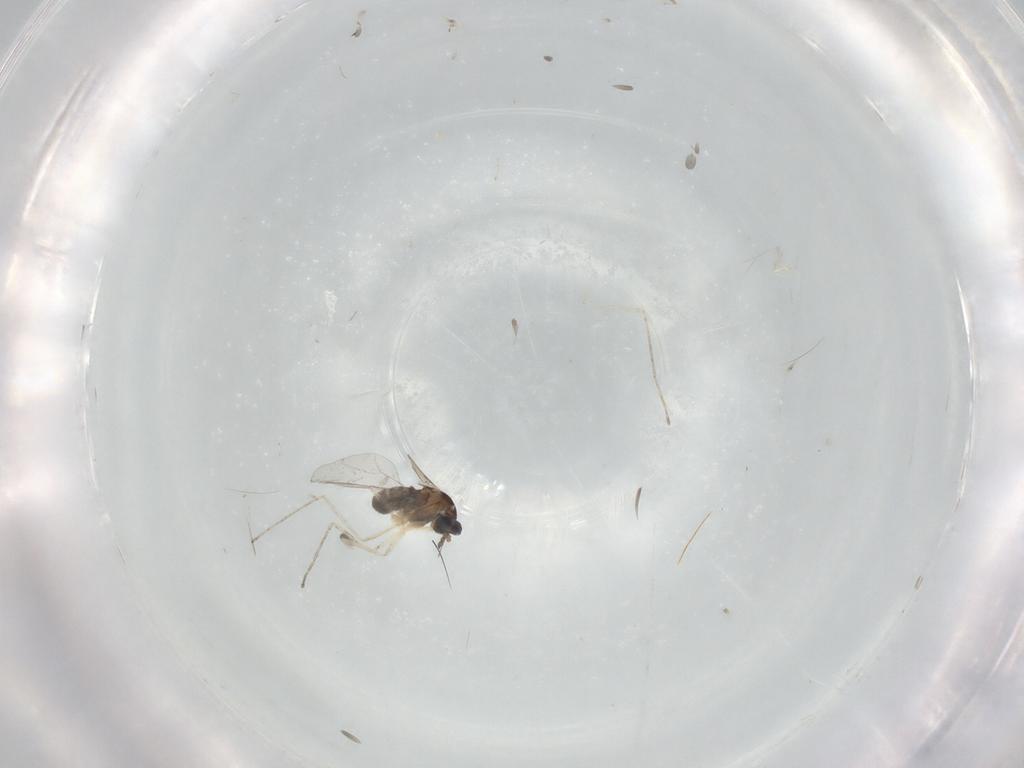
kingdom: Animalia
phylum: Arthropoda
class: Insecta
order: Diptera
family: Cecidomyiidae
